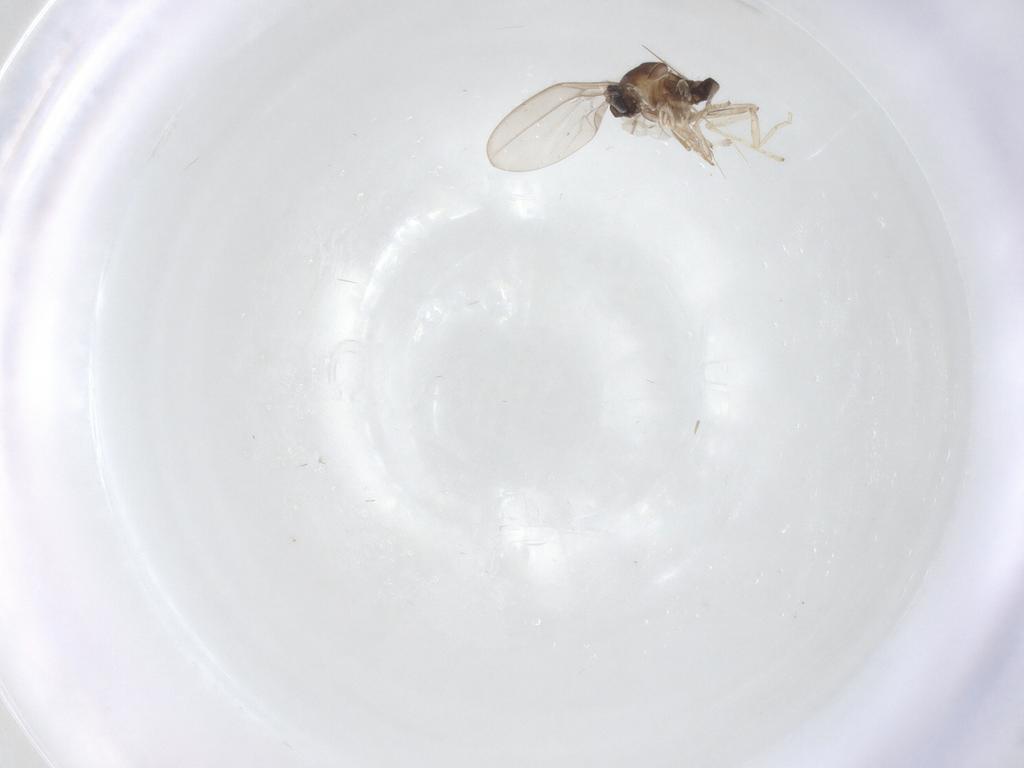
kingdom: Animalia
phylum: Arthropoda
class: Insecta
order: Diptera
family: Cecidomyiidae
